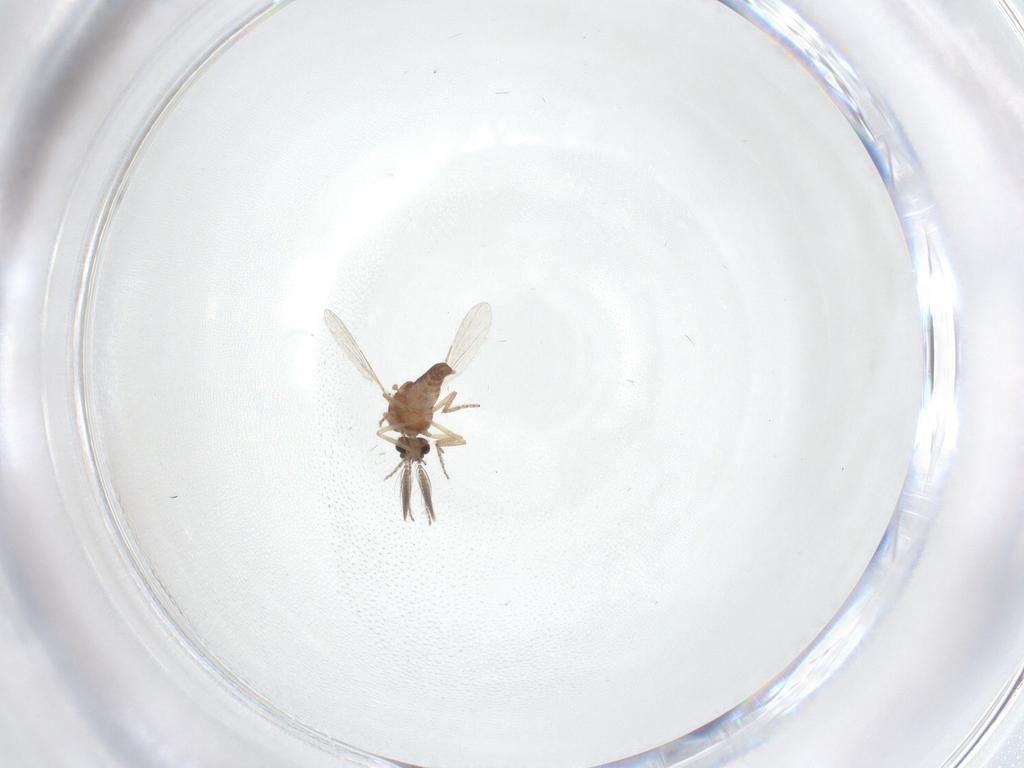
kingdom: Animalia
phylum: Arthropoda
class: Insecta
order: Diptera
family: Ceratopogonidae
